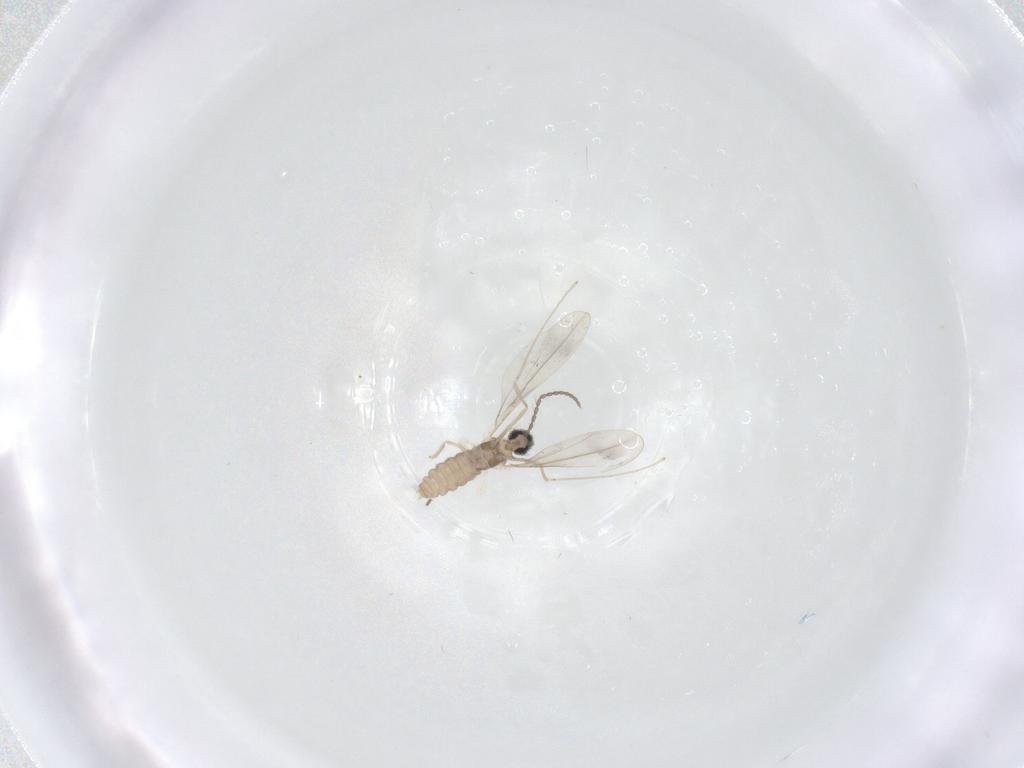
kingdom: Animalia
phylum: Arthropoda
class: Insecta
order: Diptera
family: Cecidomyiidae
